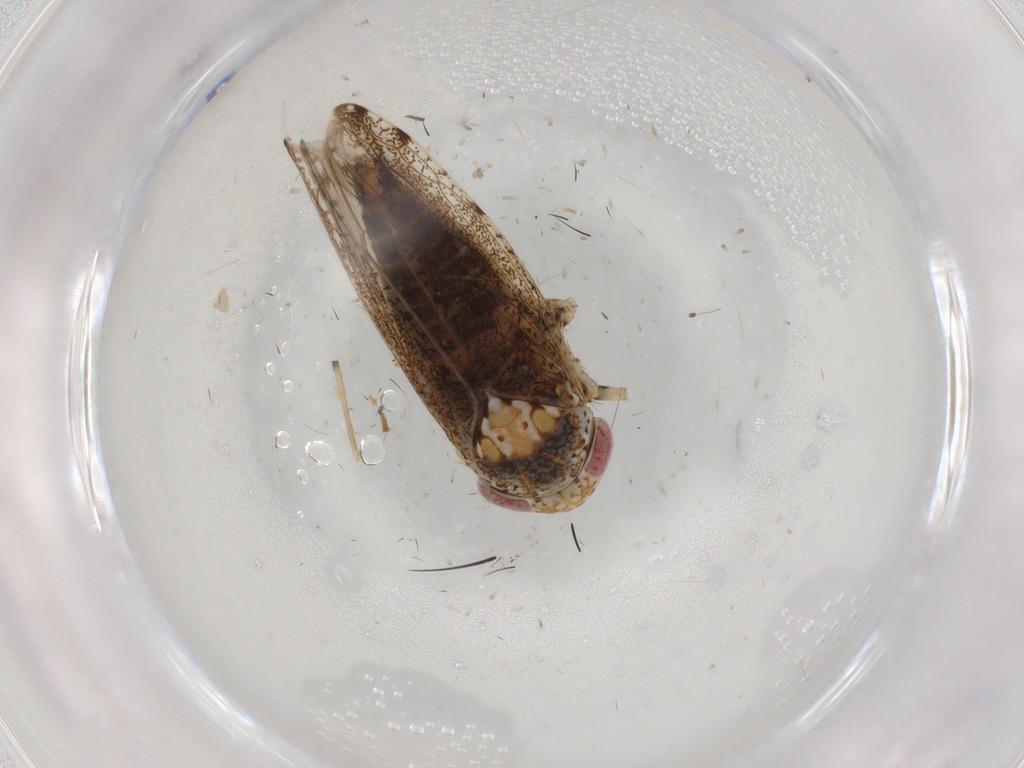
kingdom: Animalia
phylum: Arthropoda
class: Insecta
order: Hemiptera
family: Cicadellidae
